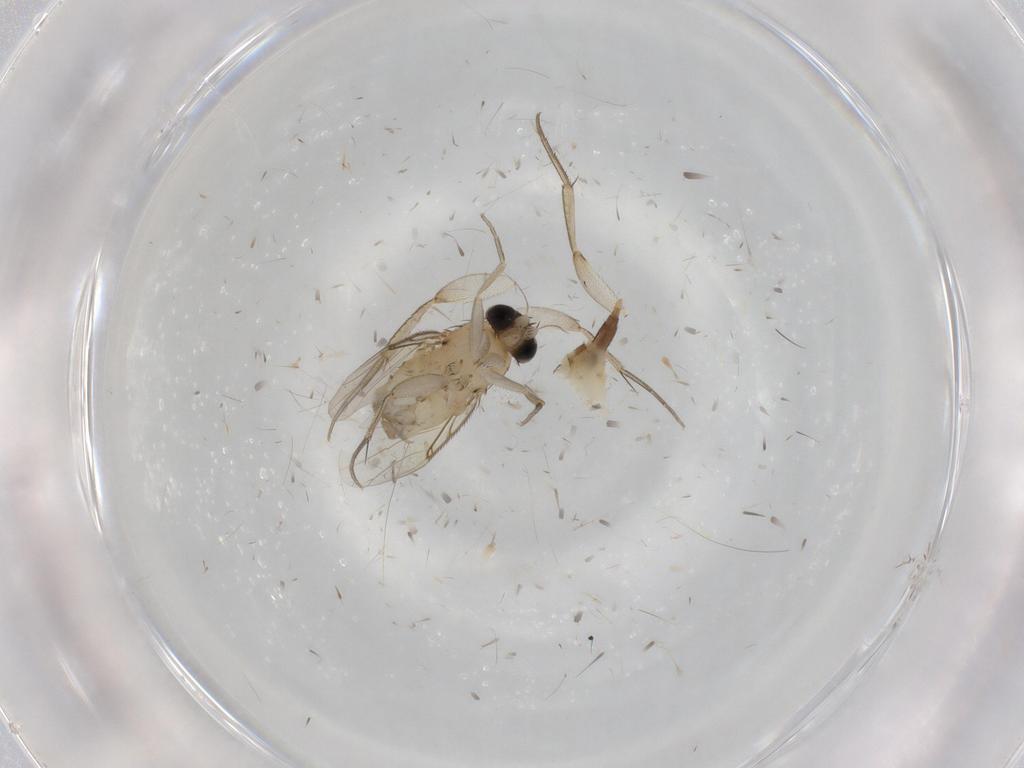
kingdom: Animalia
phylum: Arthropoda
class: Insecta
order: Diptera
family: Phoridae
